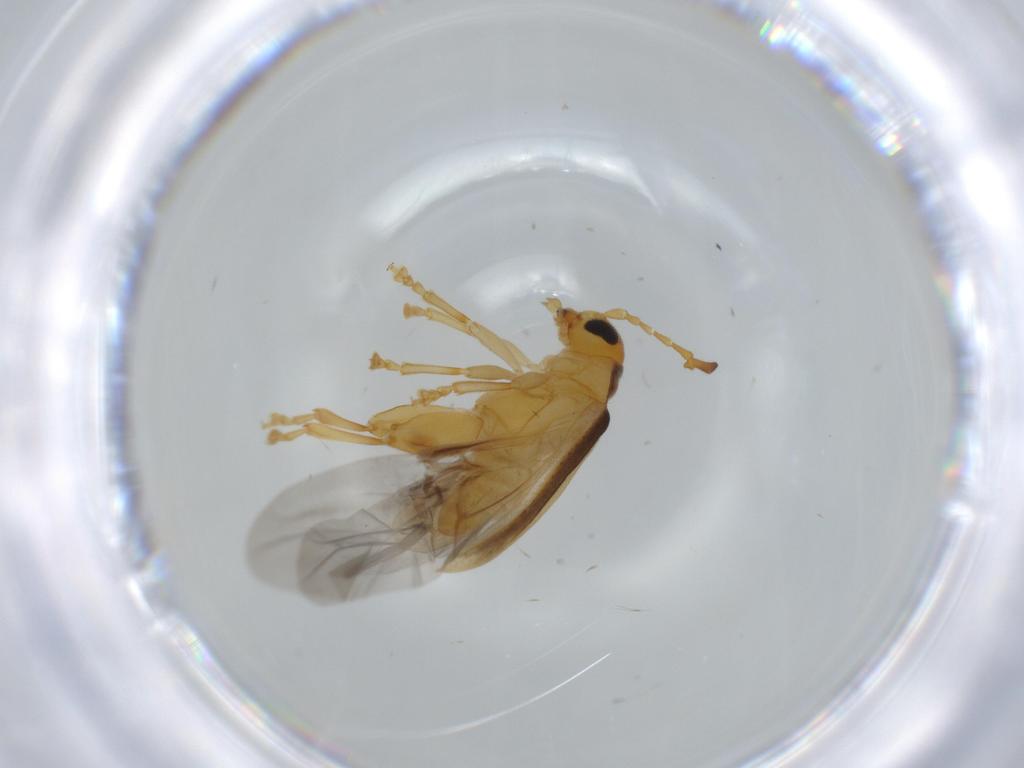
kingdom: Animalia
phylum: Arthropoda
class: Insecta
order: Coleoptera
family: Chrysomelidae
